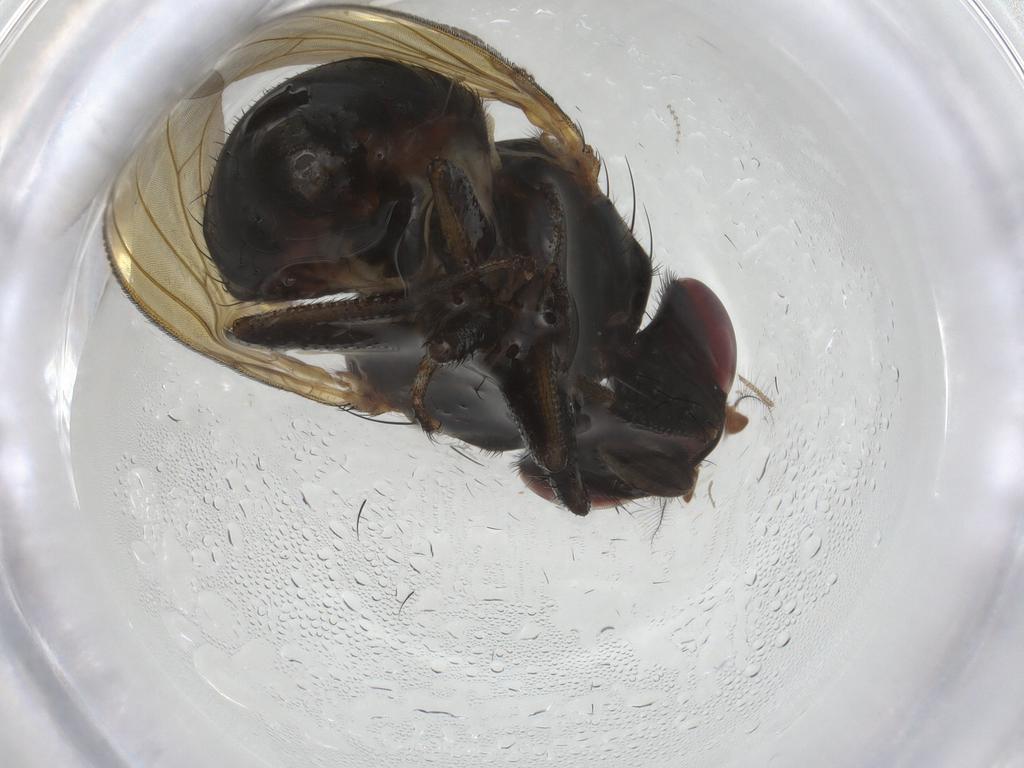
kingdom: Animalia
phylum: Arthropoda
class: Insecta
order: Diptera
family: Lauxaniidae
